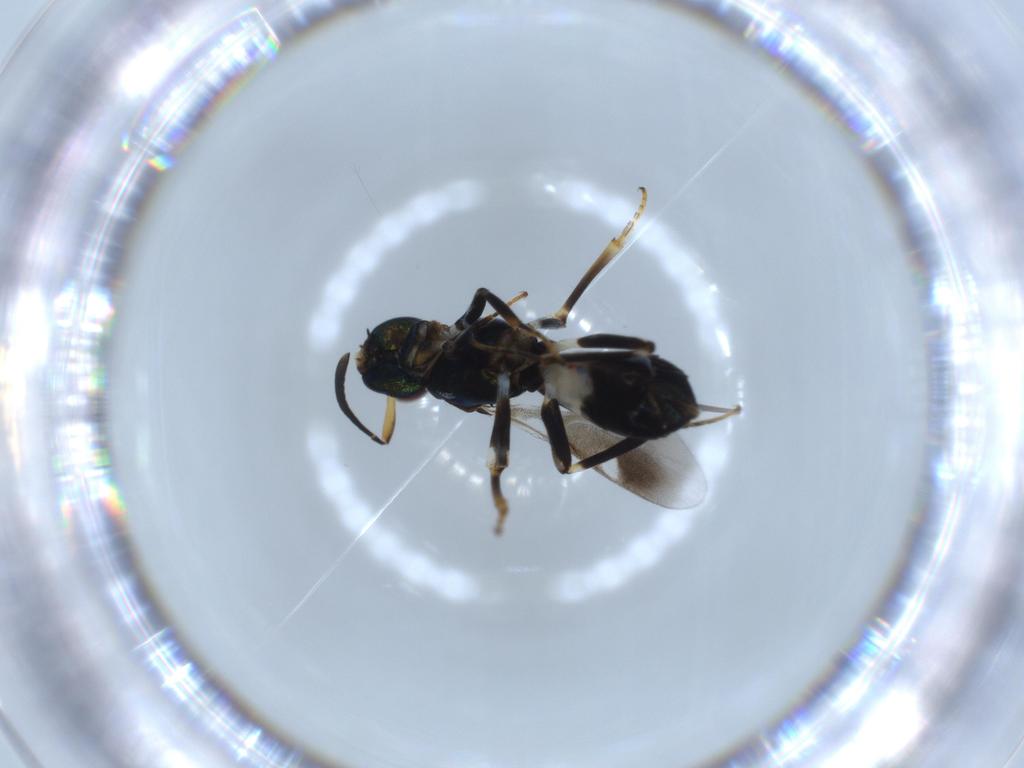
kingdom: Animalia
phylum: Arthropoda
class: Insecta
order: Hymenoptera
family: Eupelmidae
